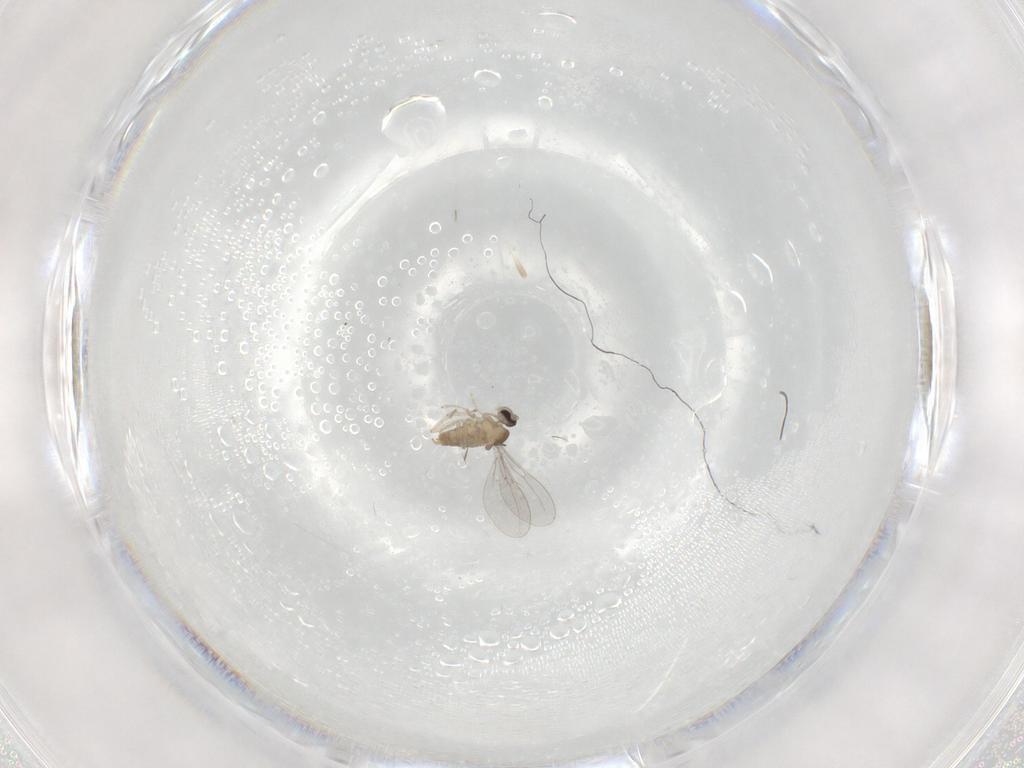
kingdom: Animalia
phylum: Arthropoda
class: Insecta
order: Diptera
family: Cecidomyiidae
